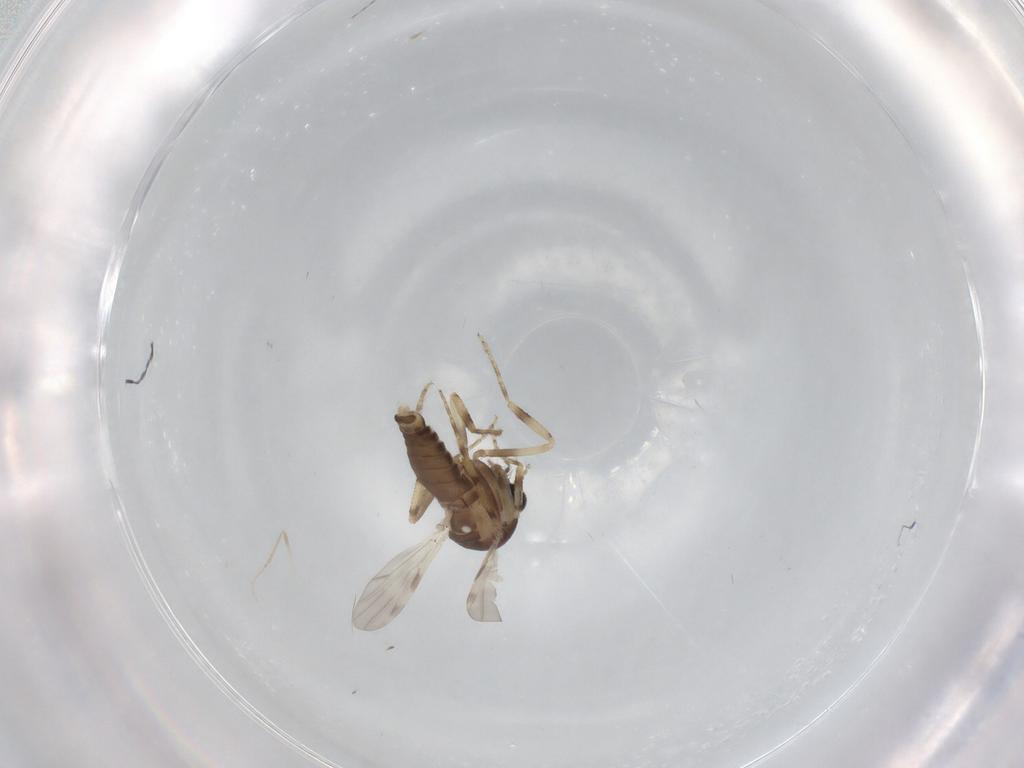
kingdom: Animalia
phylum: Arthropoda
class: Insecta
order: Diptera
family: Ceratopogonidae
